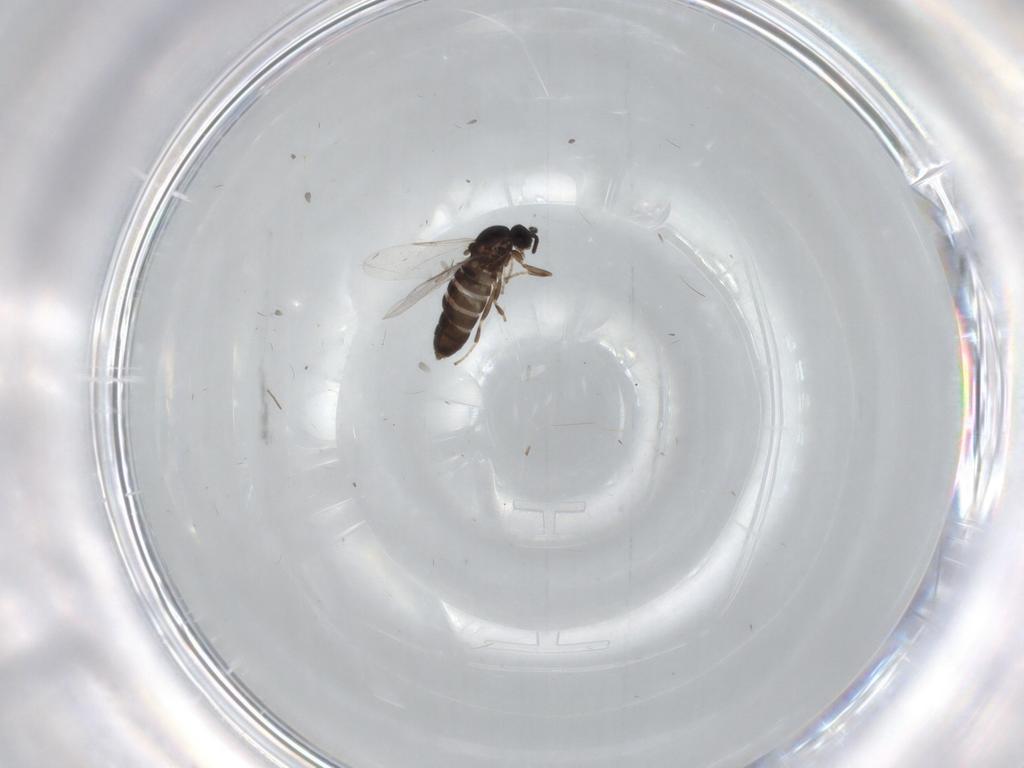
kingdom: Animalia
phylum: Arthropoda
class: Insecta
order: Diptera
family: Scatopsidae
